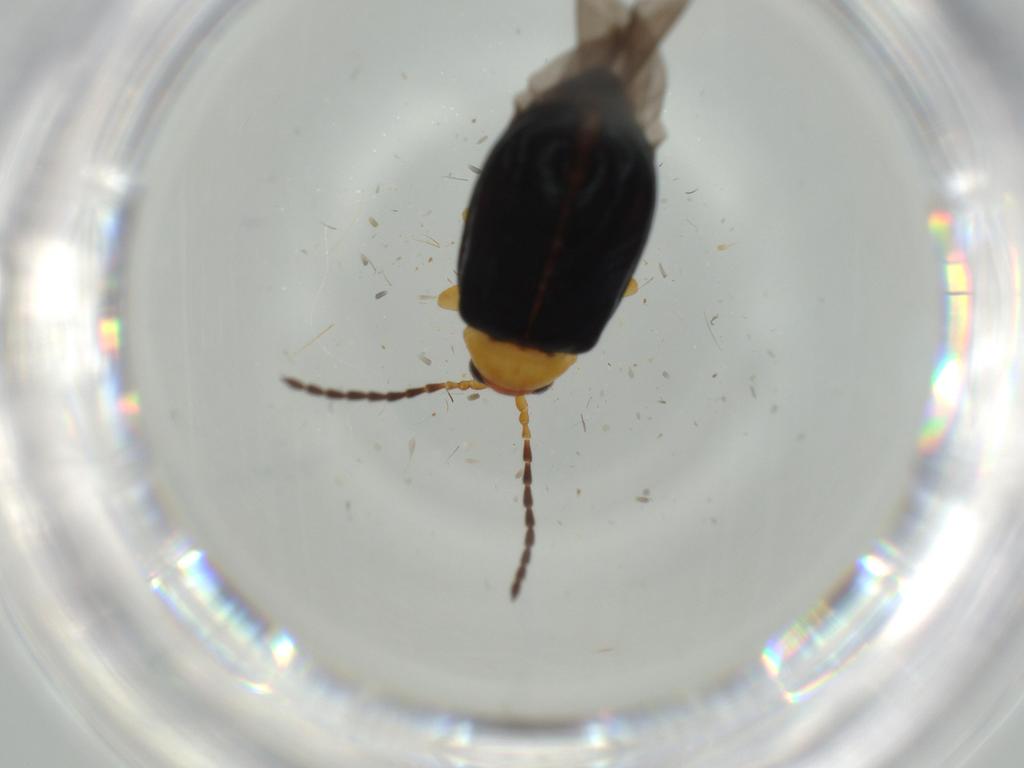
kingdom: Animalia
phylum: Arthropoda
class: Insecta
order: Coleoptera
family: Chrysomelidae
